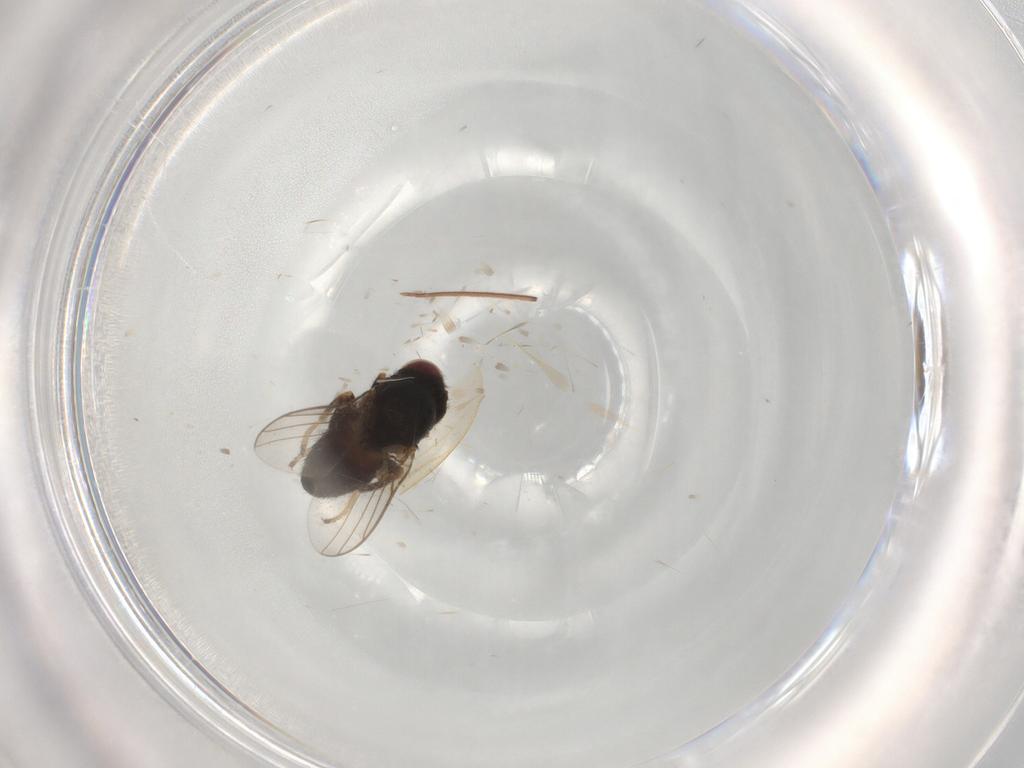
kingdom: Animalia
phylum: Arthropoda
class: Insecta
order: Diptera
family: Chloropidae
